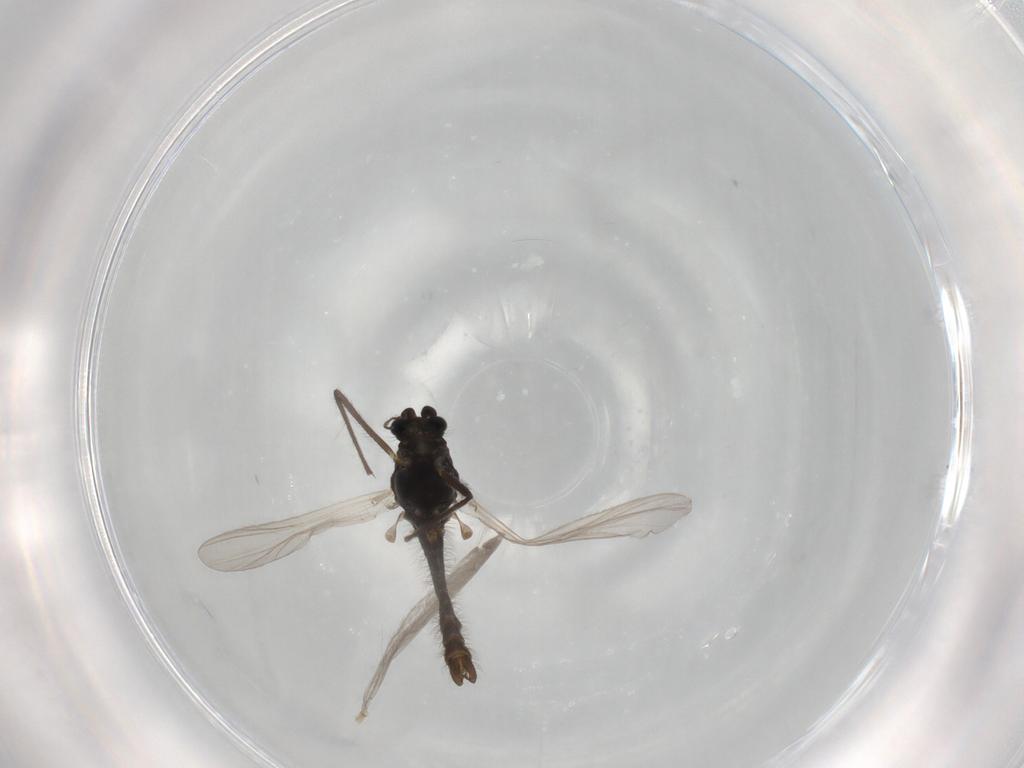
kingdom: Animalia
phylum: Arthropoda
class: Insecta
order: Diptera
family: Chironomidae
